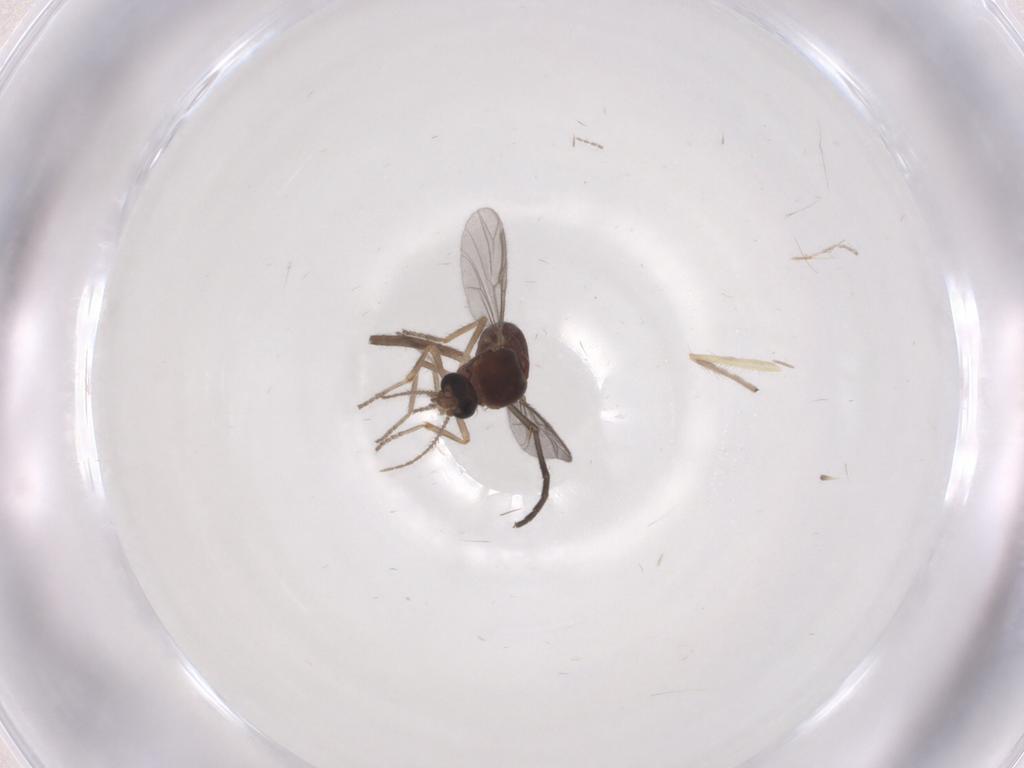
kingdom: Animalia
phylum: Arthropoda
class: Insecta
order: Diptera
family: Ceratopogonidae
